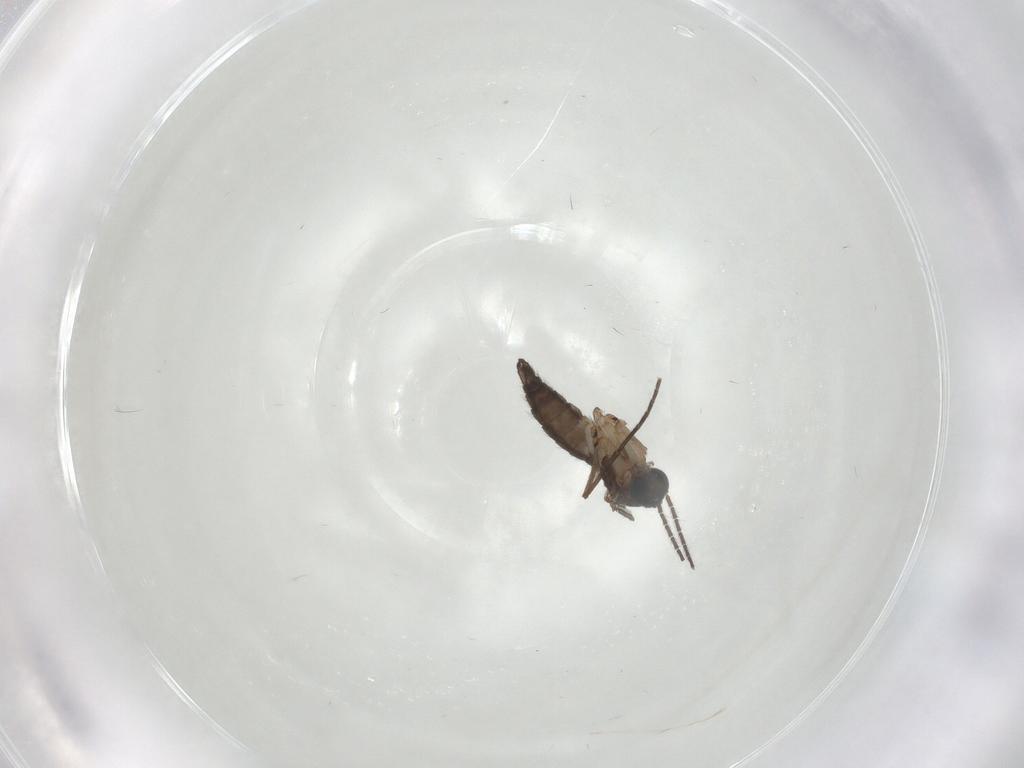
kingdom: Animalia
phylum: Arthropoda
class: Insecta
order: Diptera
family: Sciaridae
